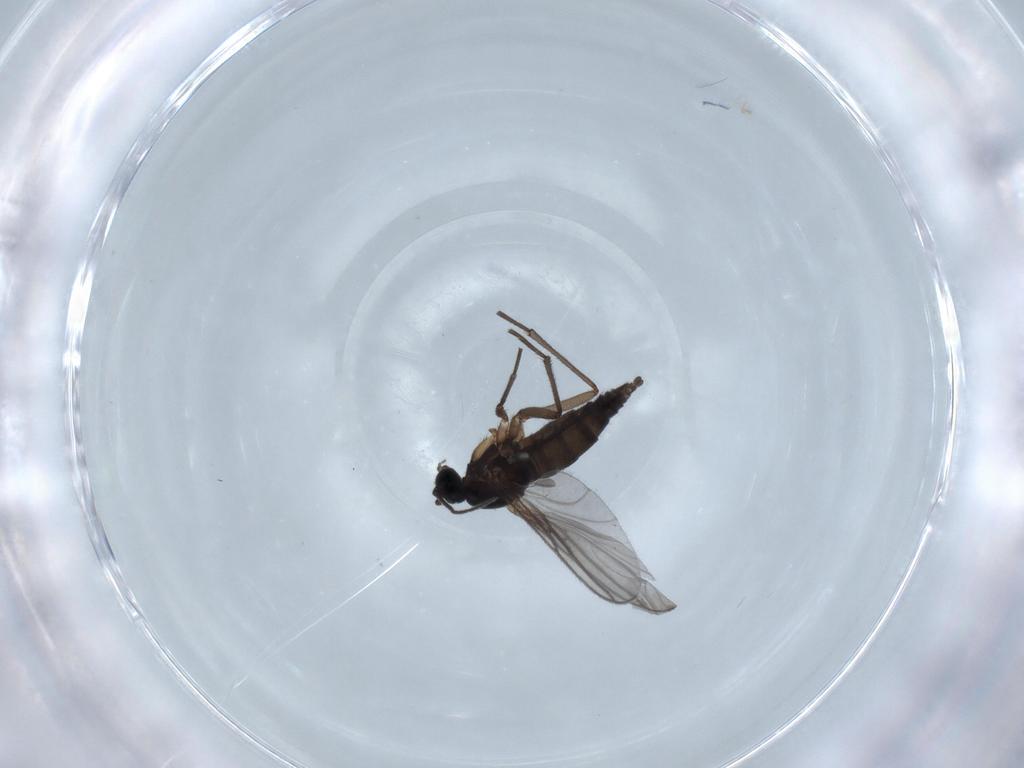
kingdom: Animalia
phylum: Arthropoda
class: Insecta
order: Diptera
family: Sciaridae
